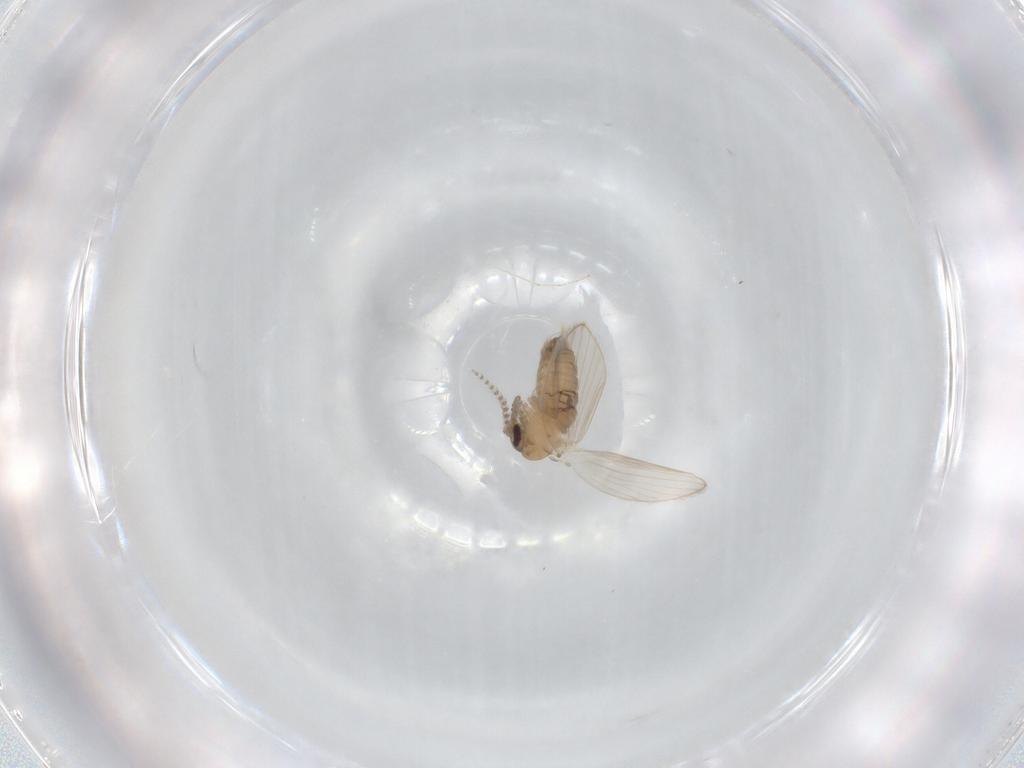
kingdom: Animalia
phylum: Arthropoda
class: Insecta
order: Diptera
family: Psychodidae
